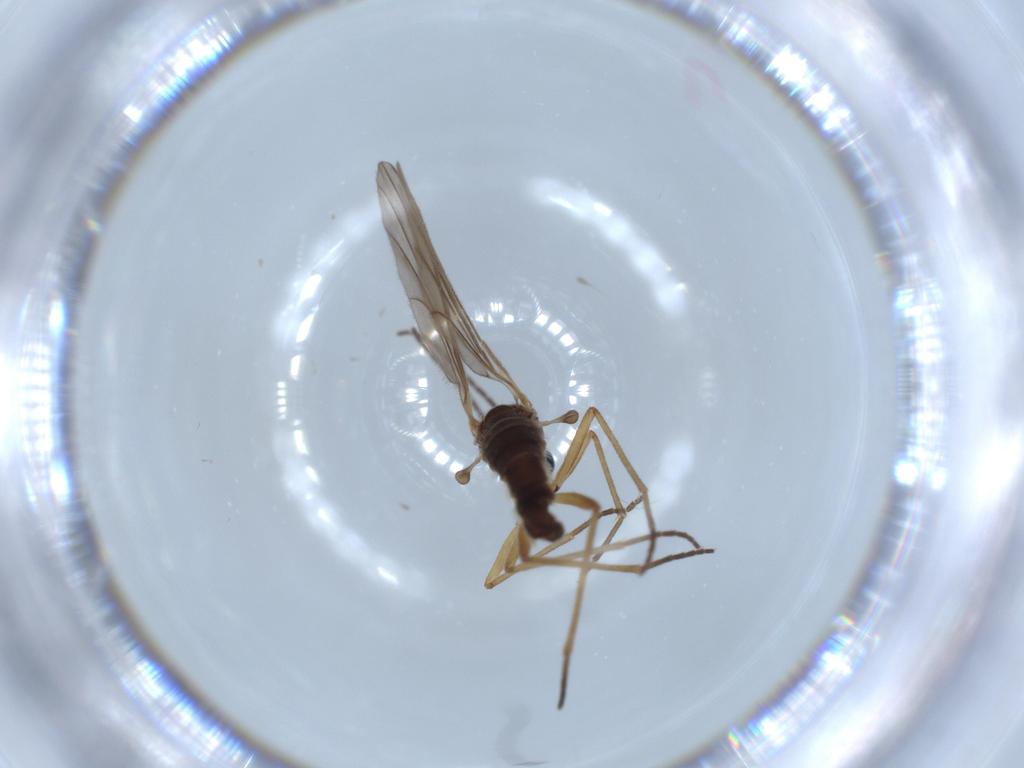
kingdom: Animalia
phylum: Arthropoda
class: Insecta
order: Diptera
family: Sciaridae
